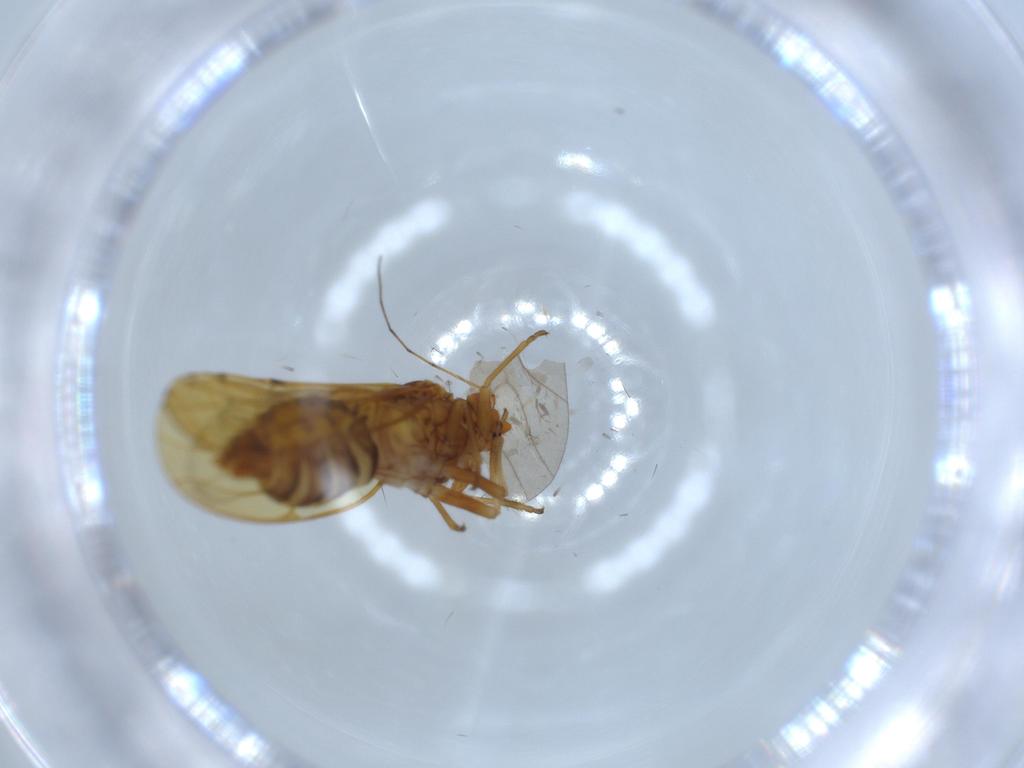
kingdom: Animalia
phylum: Arthropoda
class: Insecta
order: Hemiptera
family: Psylloidea_incertae_sedis
